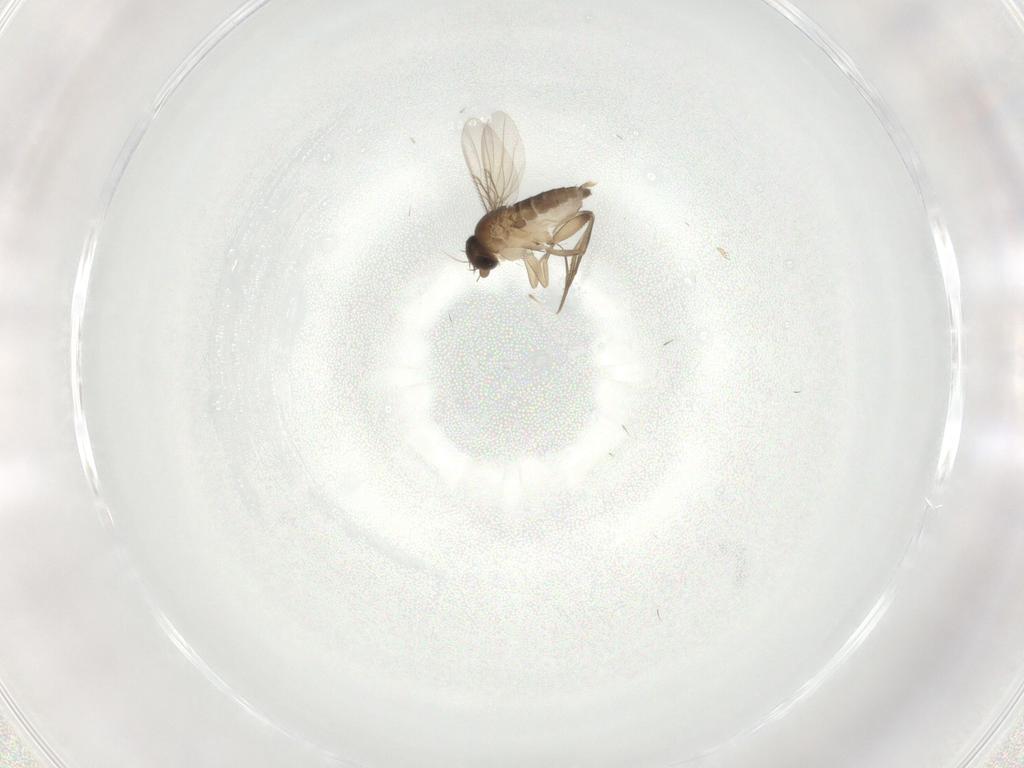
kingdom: Animalia
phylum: Arthropoda
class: Insecta
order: Diptera
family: Phoridae
